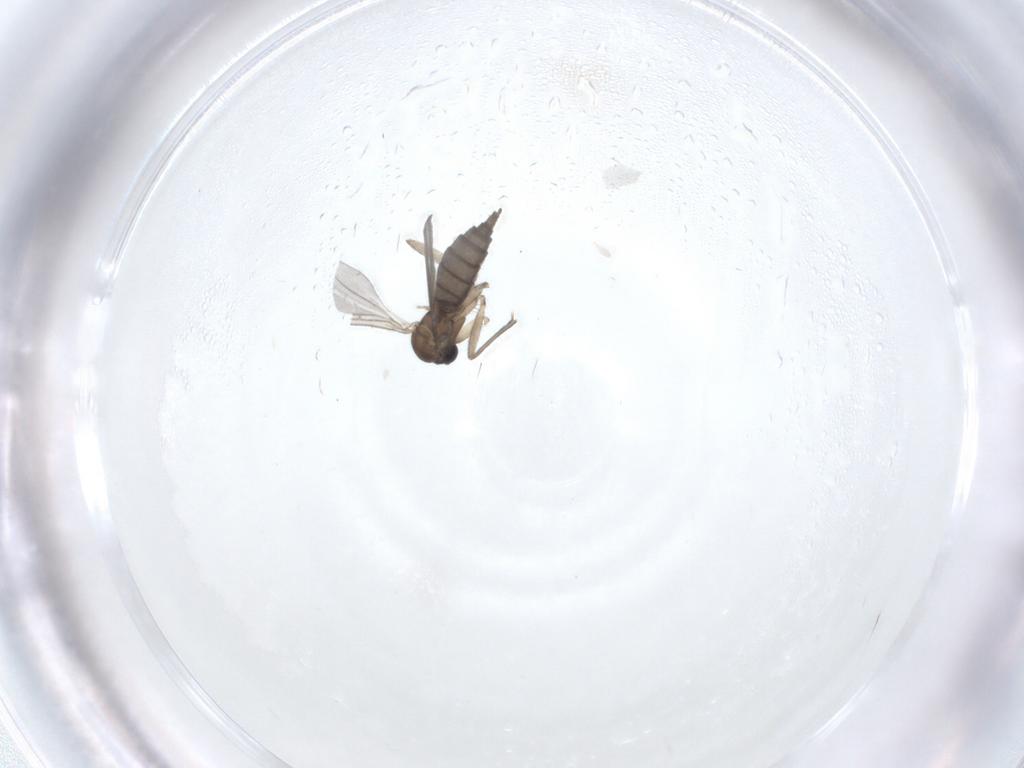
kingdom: Animalia
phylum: Arthropoda
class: Insecta
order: Diptera
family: Sciaridae
